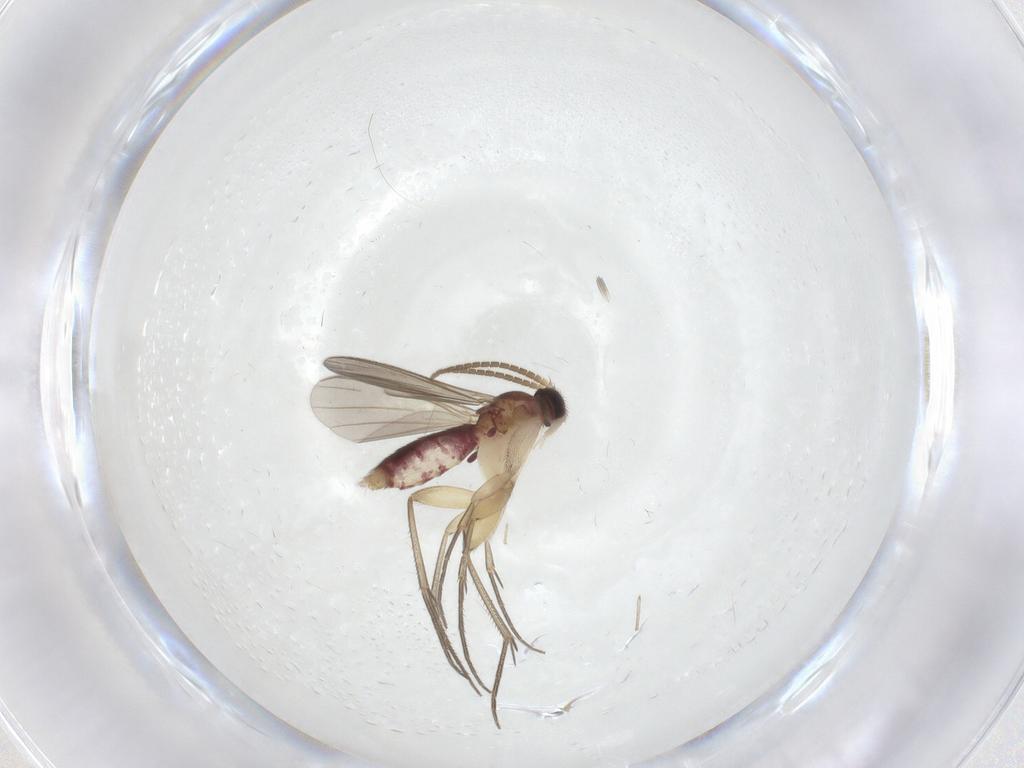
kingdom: Animalia
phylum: Arthropoda
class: Insecta
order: Diptera
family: Mycetophilidae
